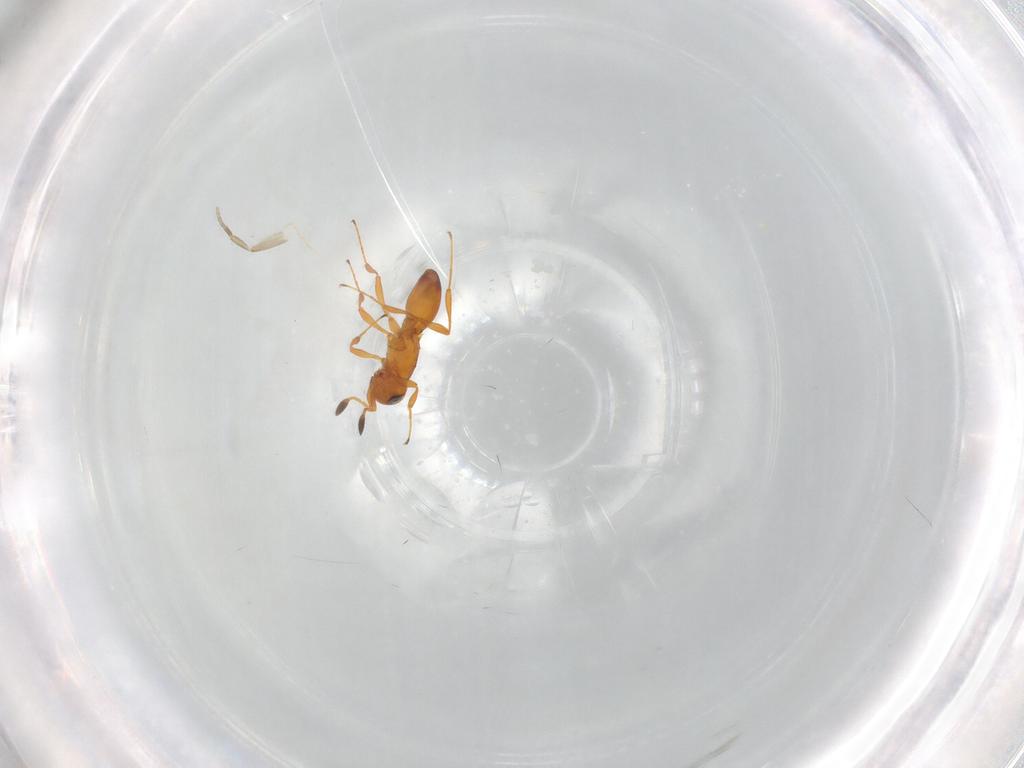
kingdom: Animalia
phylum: Arthropoda
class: Insecta
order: Hymenoptera
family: Platygastridae
